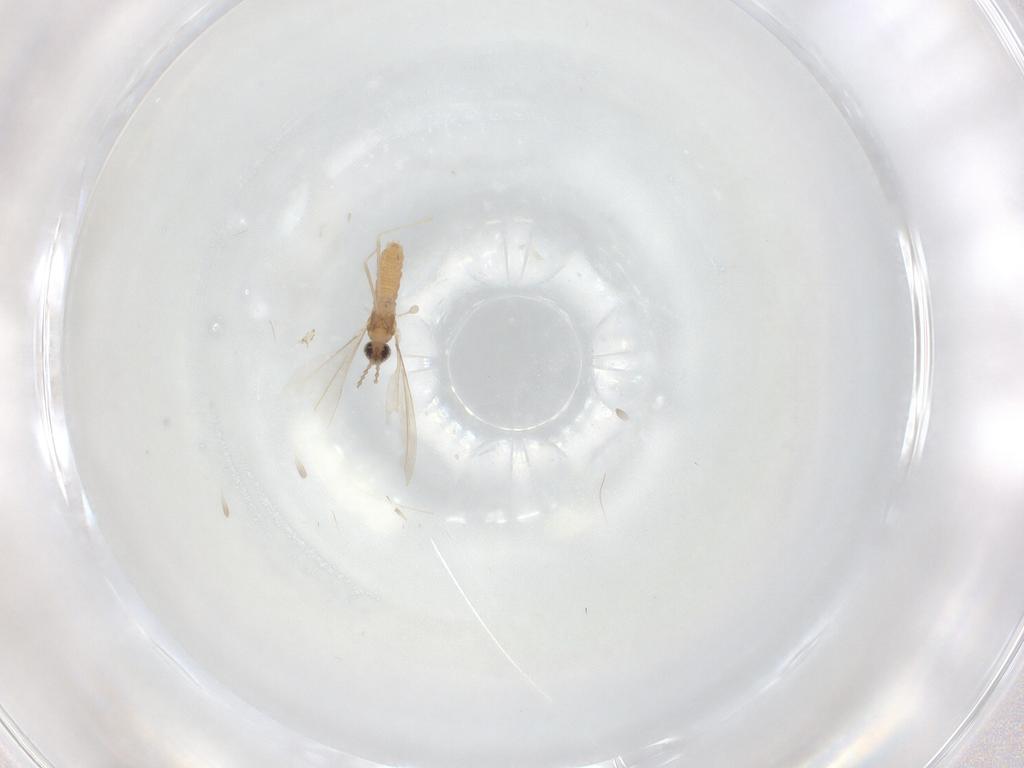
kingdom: Animalia
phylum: Arthropoda
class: Insecta
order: Diptera
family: Cecidomyiidae
